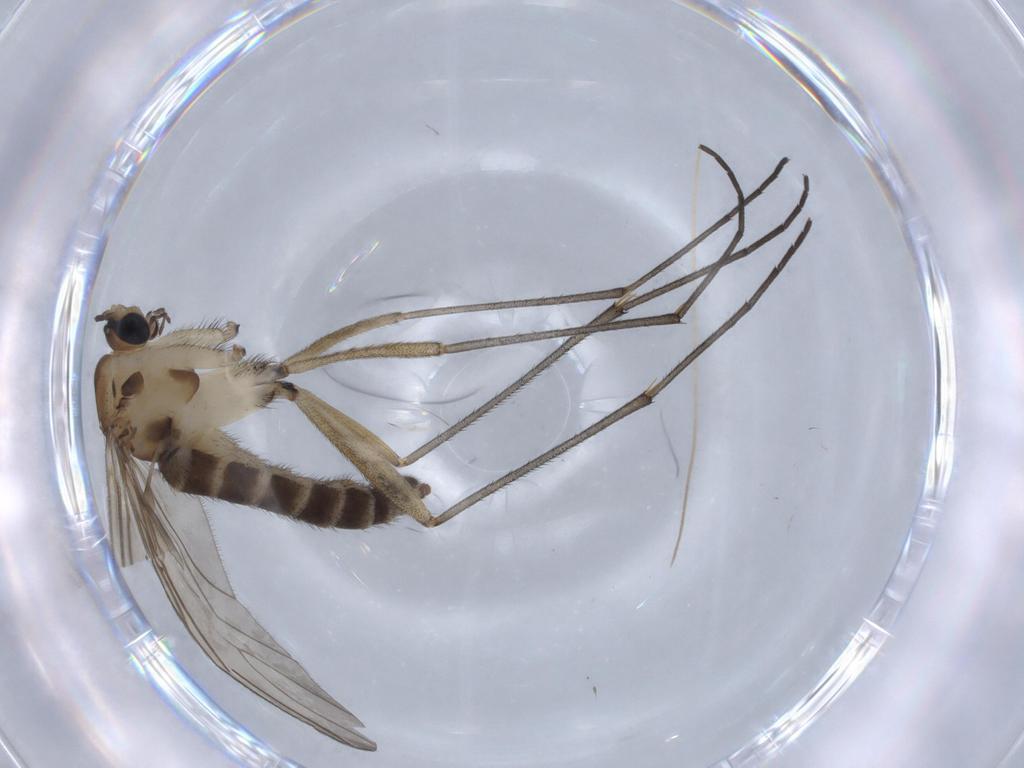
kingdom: Animalia
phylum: Arthropoda
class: Insecta
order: Diptera
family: Sciaridae
